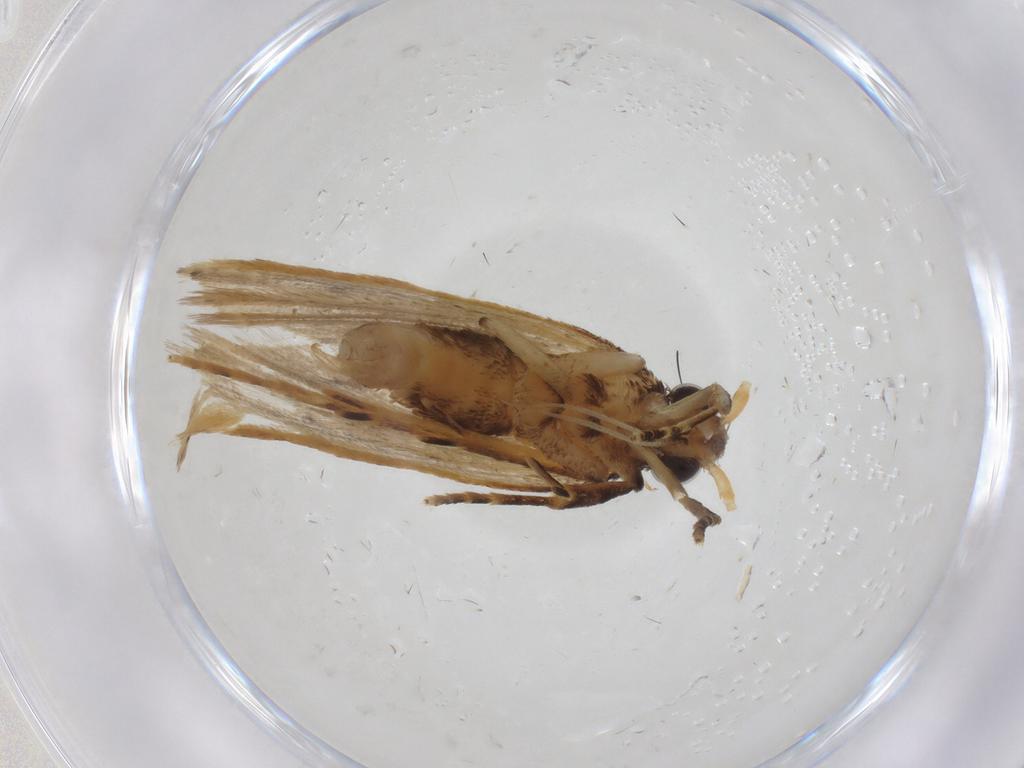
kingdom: Animalia
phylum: Arthropoda
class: Insecta
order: Lepidoptera
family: Lecithoceridae
